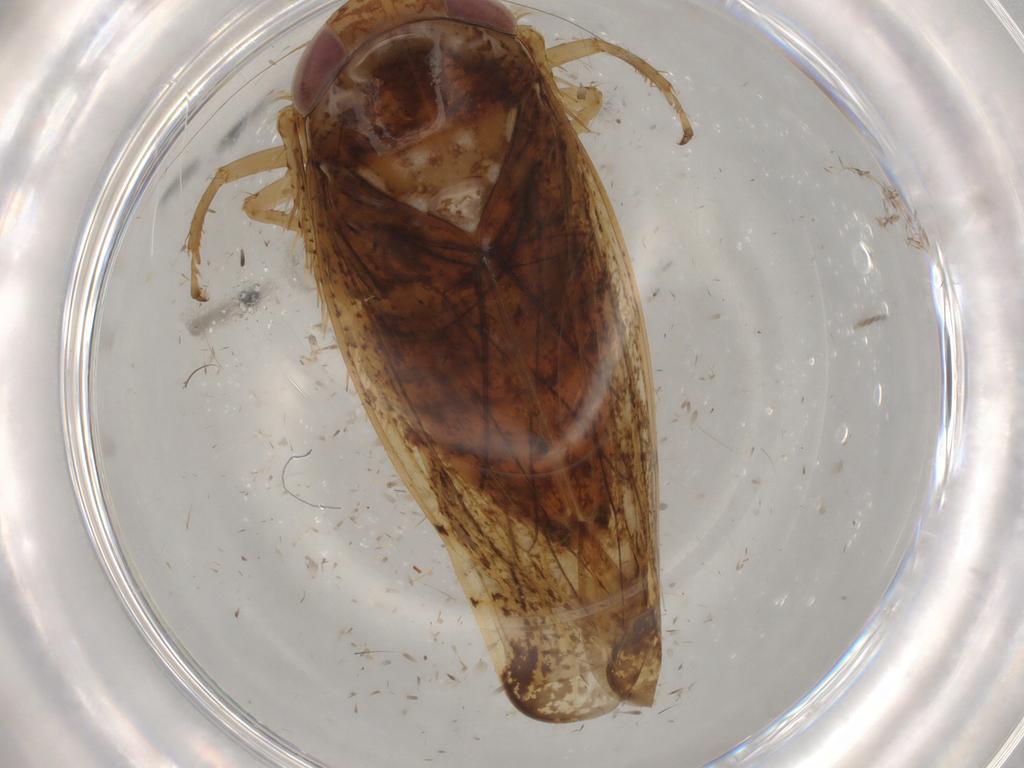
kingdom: Animalia
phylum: Arthropoda
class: Insecta
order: Hemiptera
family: Cicadellidae
